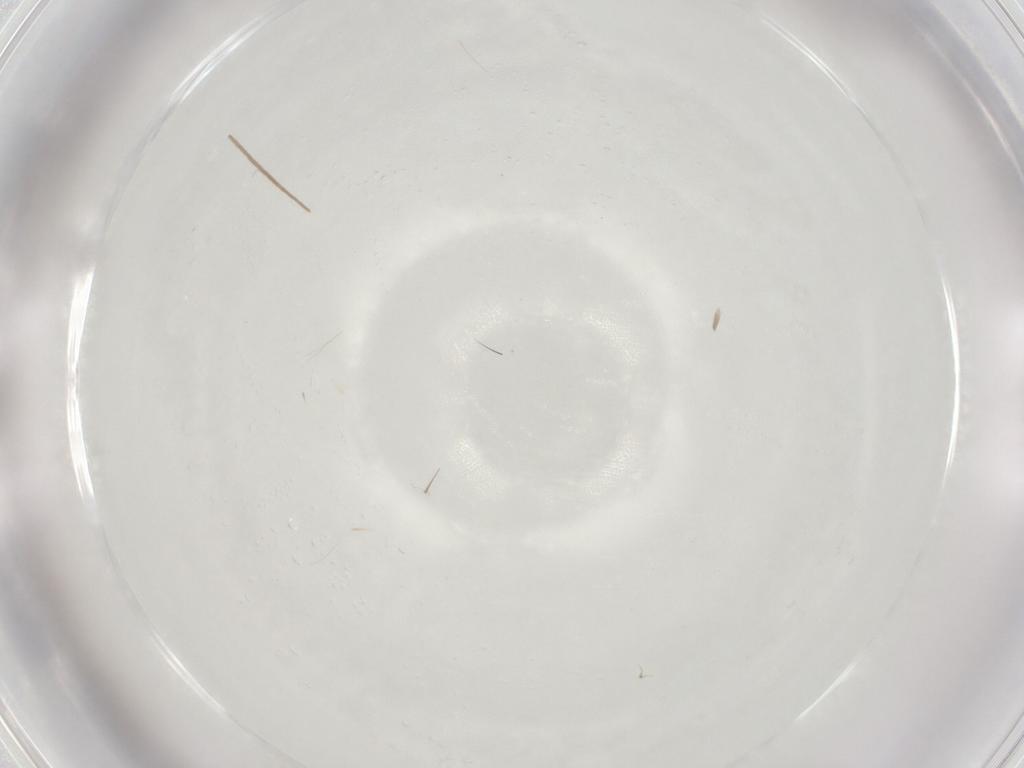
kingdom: Animalia
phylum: Arthropoda
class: Collembola
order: Entomobryomorpha
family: Isotomidae
